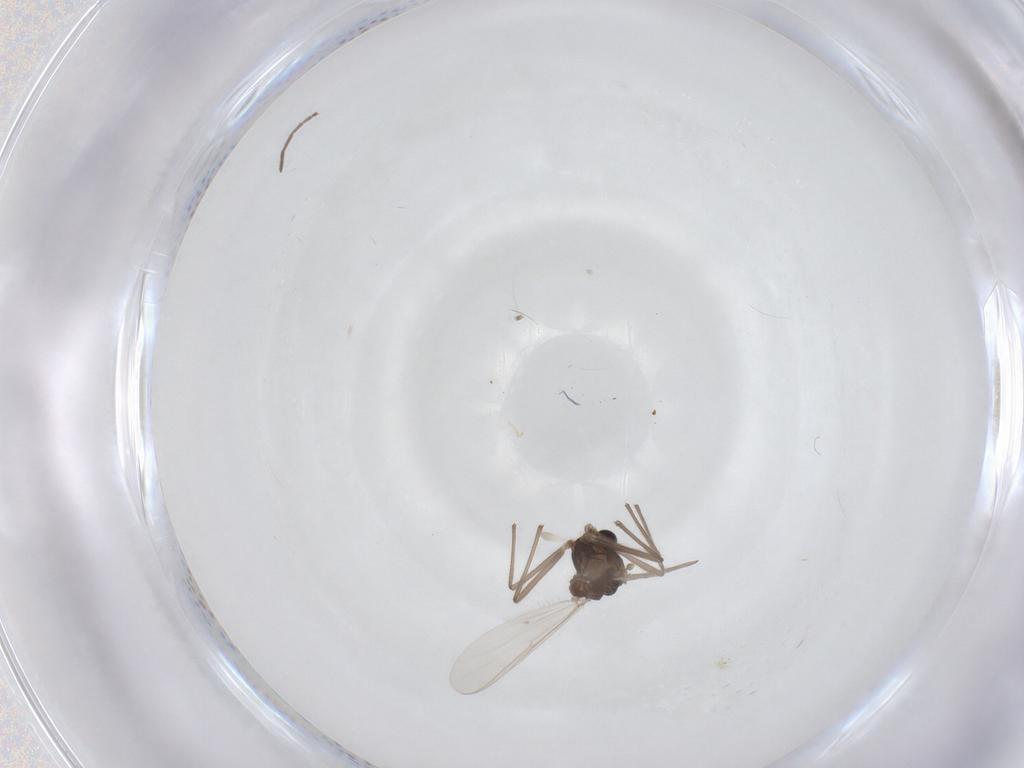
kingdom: Animalia
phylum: Arthropoda
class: Insecta
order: Diptera
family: Chironomidae
